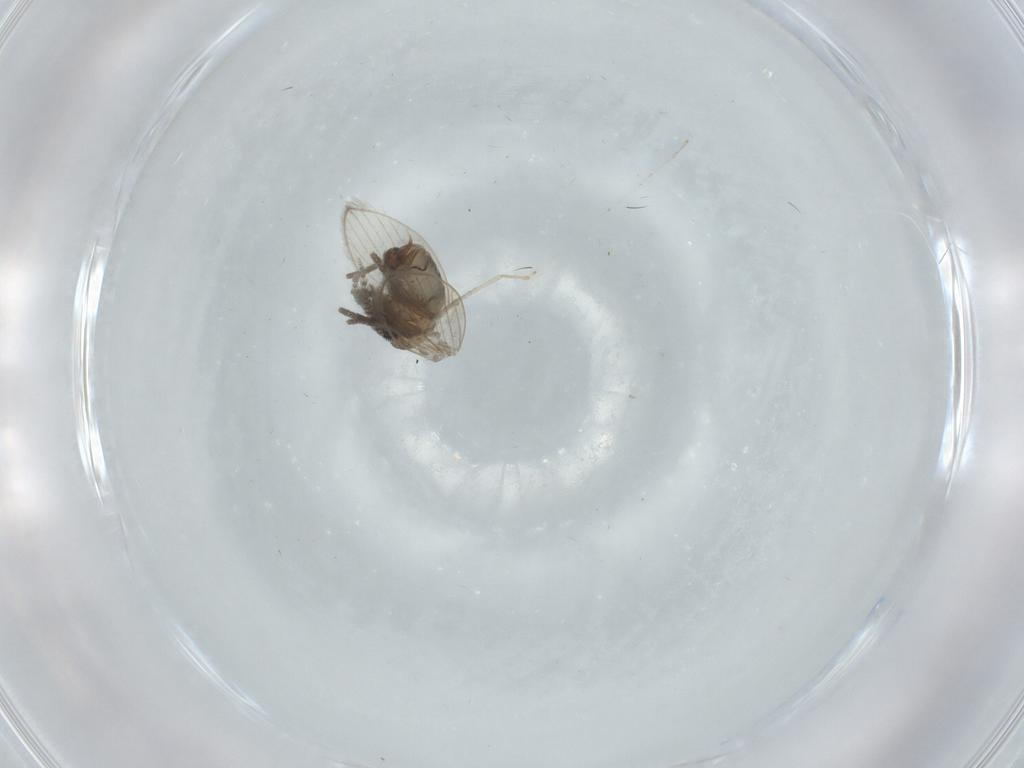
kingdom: Animalia
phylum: Arthropoda
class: Insecta
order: Diptera
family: Psychodidae
